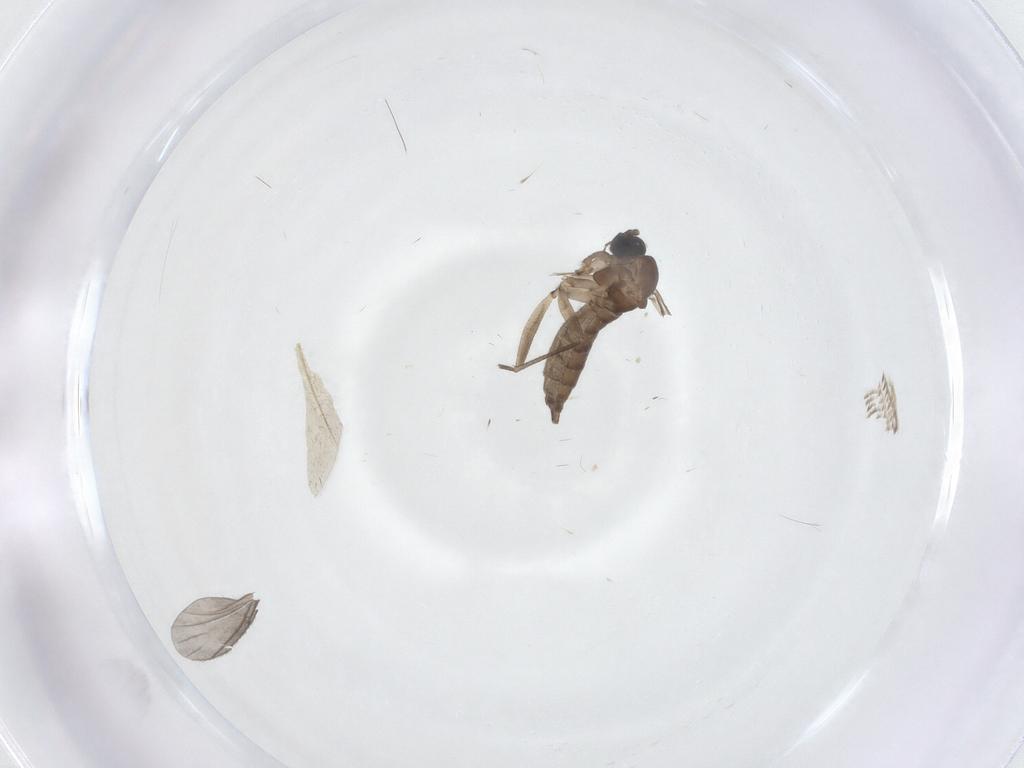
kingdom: Animalia
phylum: Arthropoda
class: Insecta
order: Diptera
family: Sciaridae
